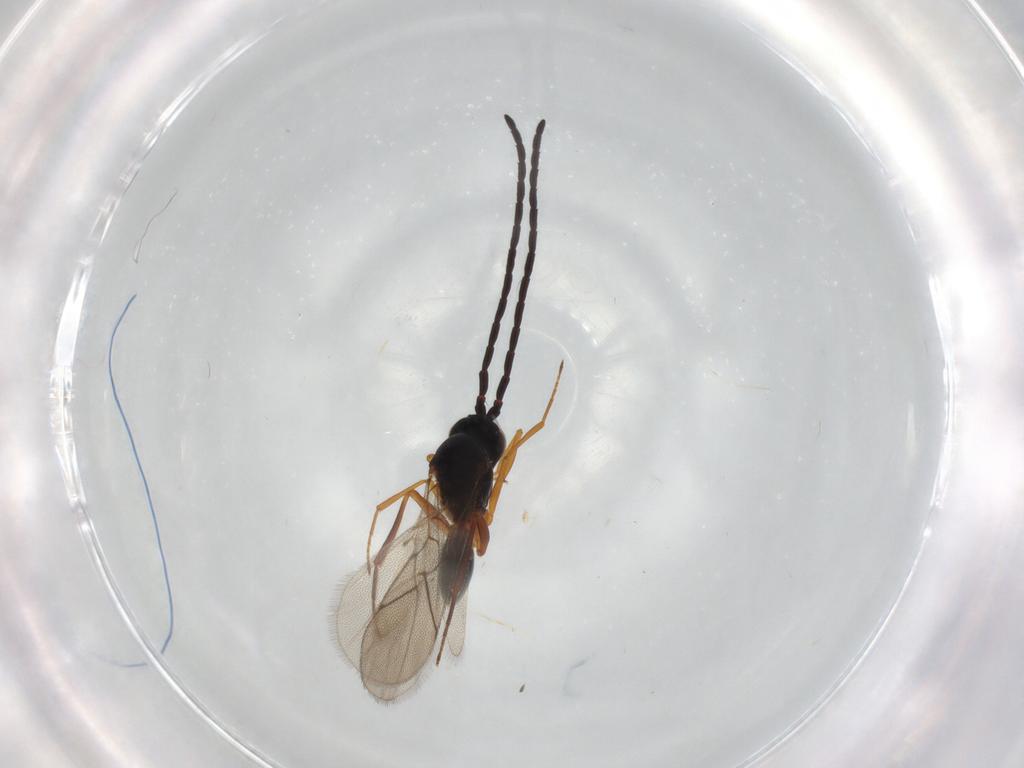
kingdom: Animalia
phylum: Arthropoda
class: Insecta
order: Hymenoptera
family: Figitidae
